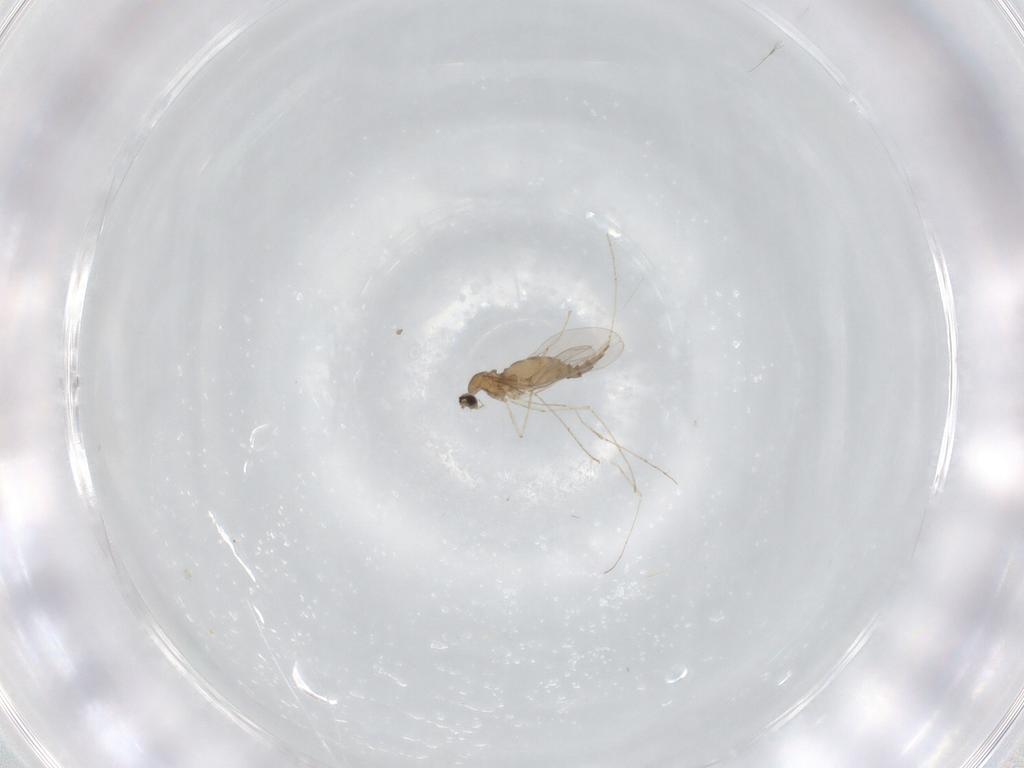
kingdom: Animalia
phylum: Arthropoda
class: Insecta
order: Diptera
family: Cecidomyiidae
